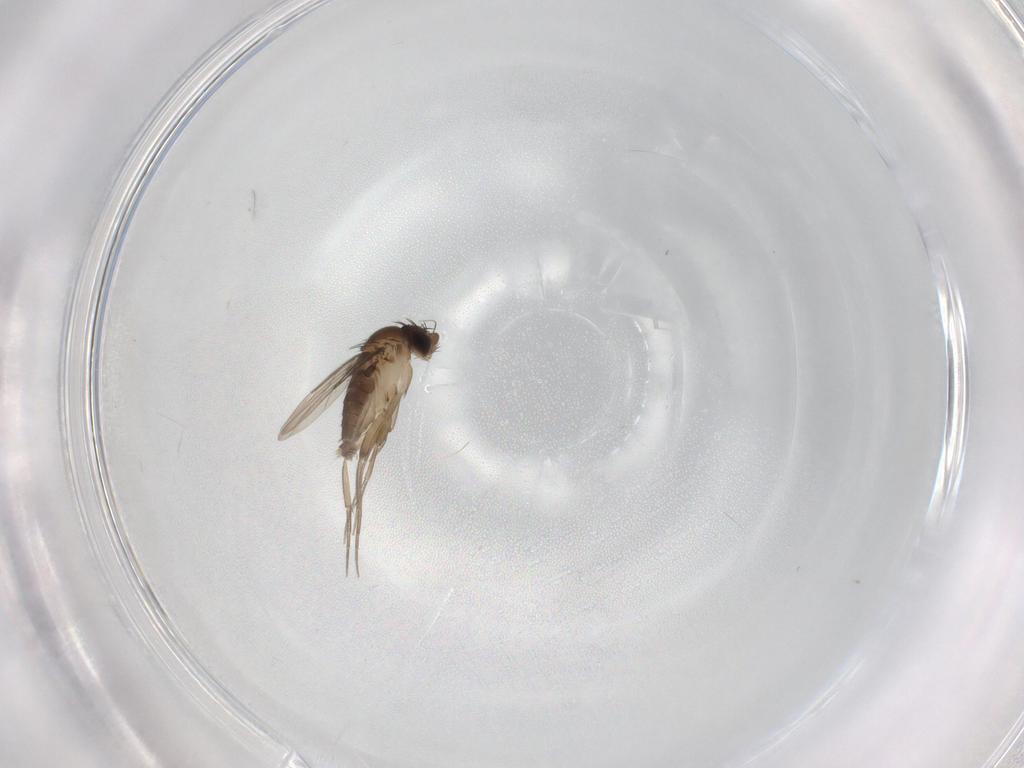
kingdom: Animalia
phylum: Arthropoda
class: Insecta
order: Diptera
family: Phoridae
